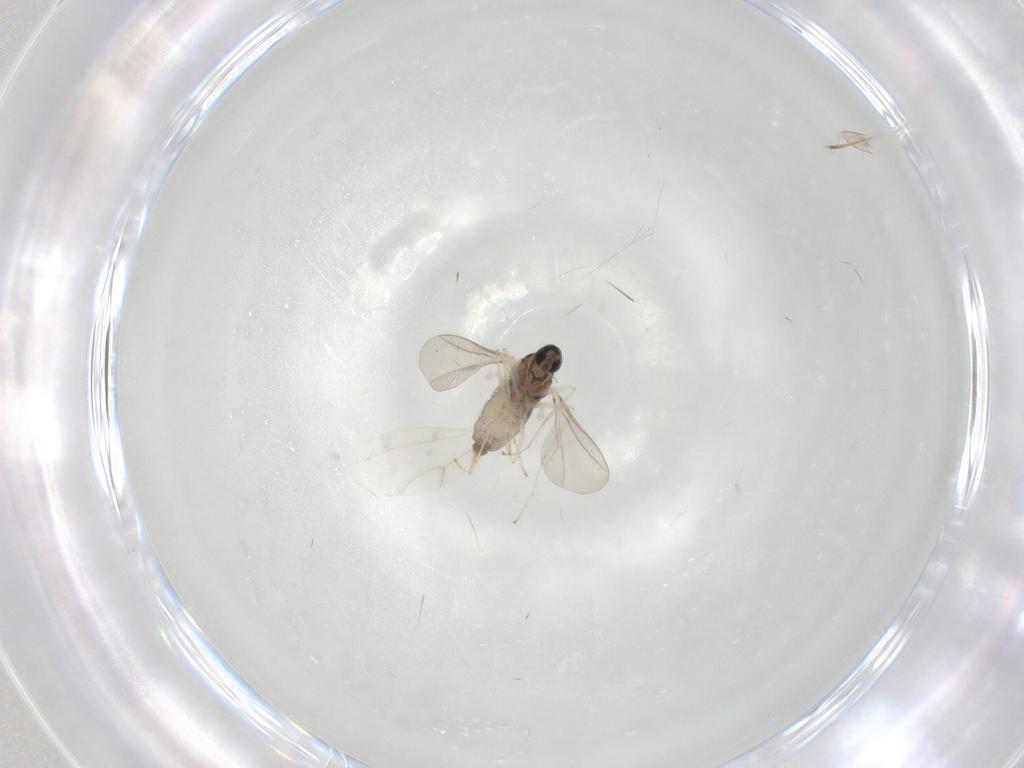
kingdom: Animalia
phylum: Arthropoda
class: Insecta
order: Diptera
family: Cecidomyiidae
